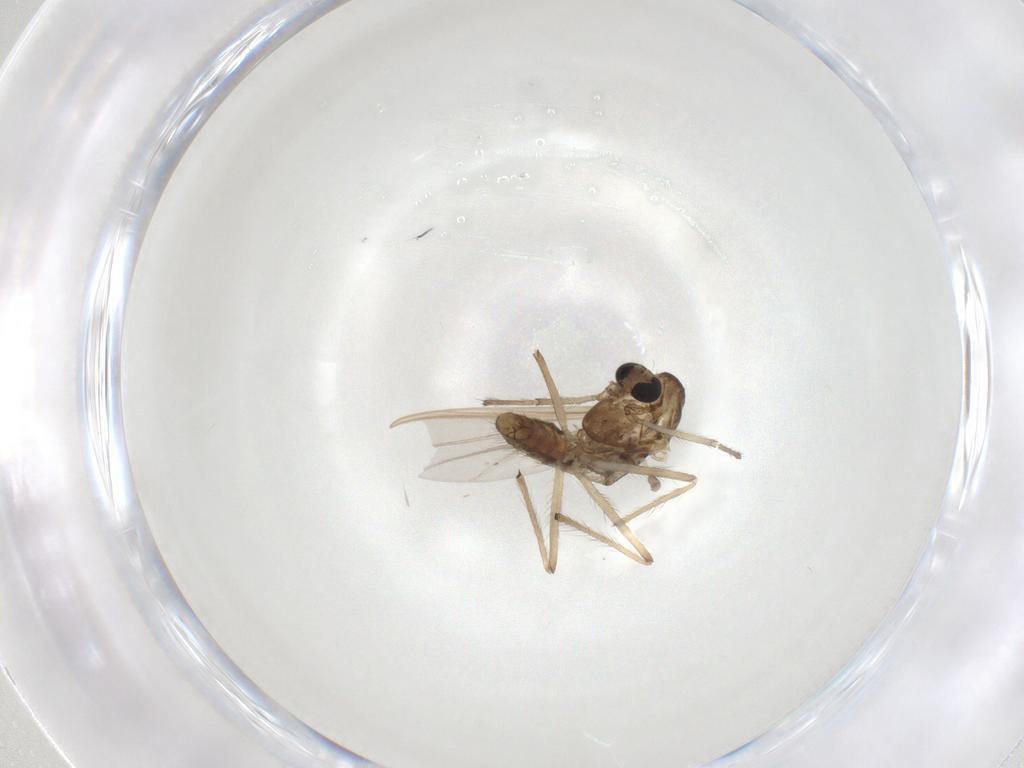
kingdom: Animalia
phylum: Arthropoda
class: Insecta
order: Diptera
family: Chironomidae
